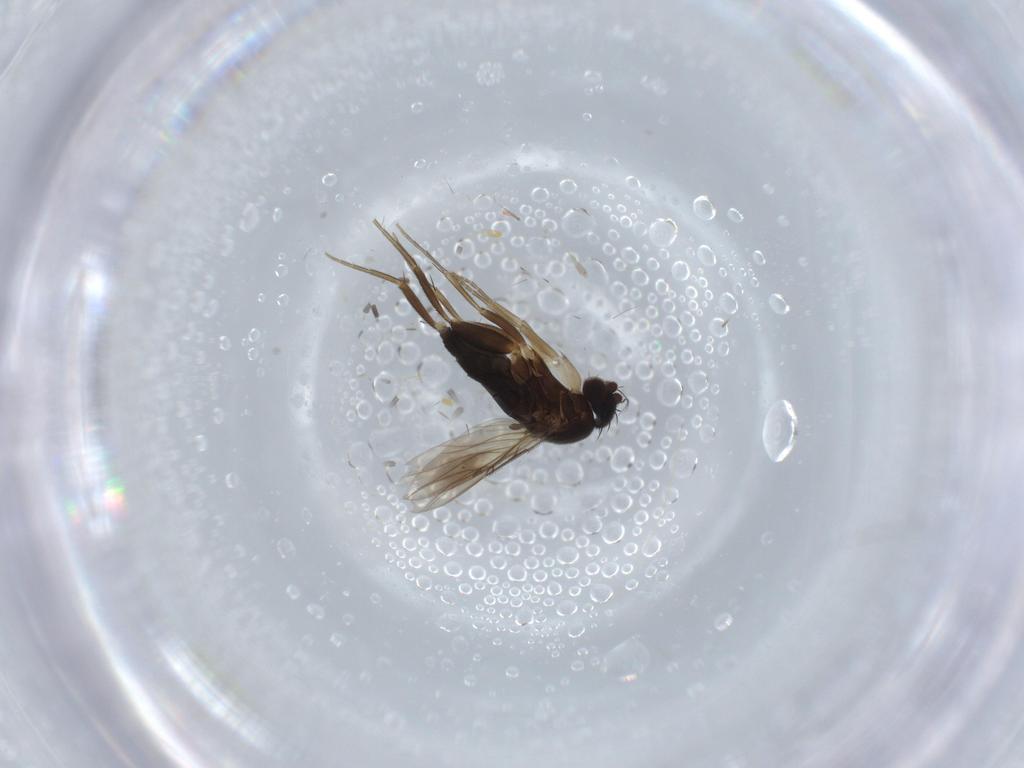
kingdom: Animalia
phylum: Arthropoda
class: Insecta
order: Diptera
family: Phoridae
